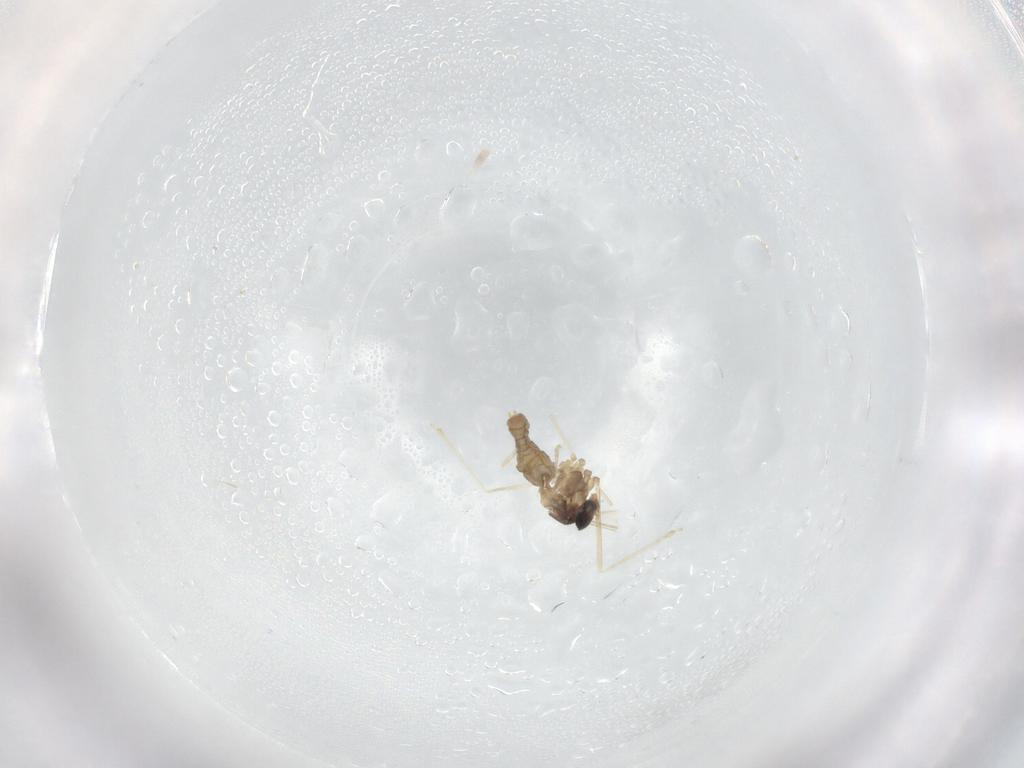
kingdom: Animalia
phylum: Arthropoda
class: Insecta
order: Diptera
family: Cecidomyiidae
